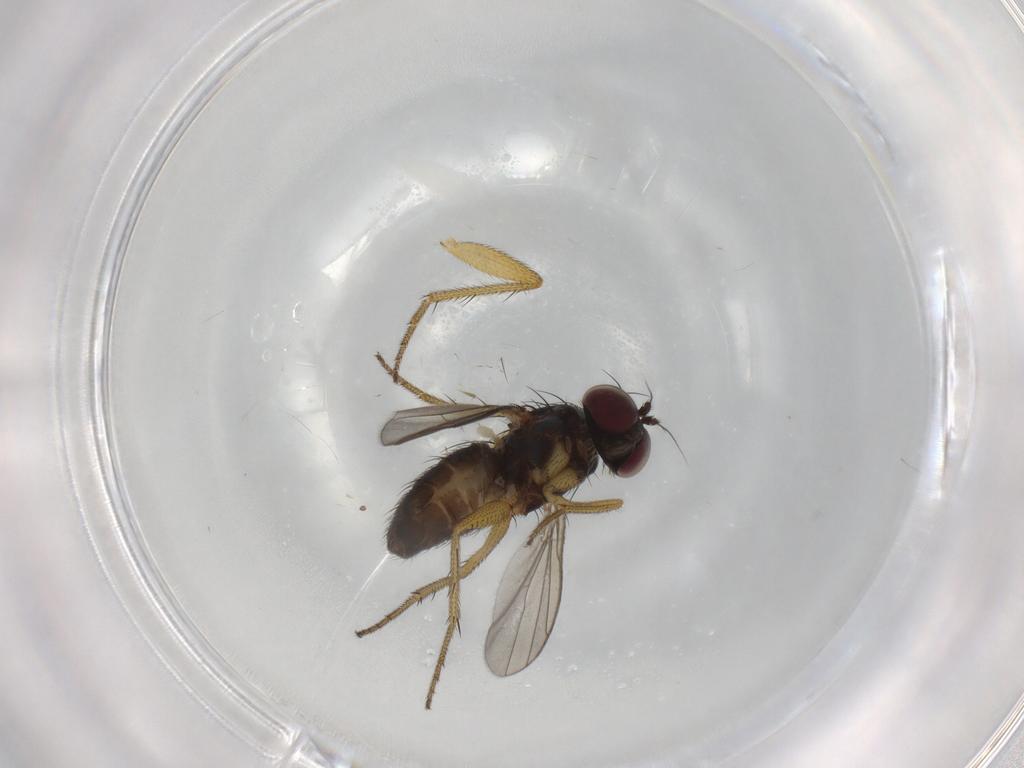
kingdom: Animalia
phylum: Arthropoda
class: Insecta
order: Diptera
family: Dolichopodidae
